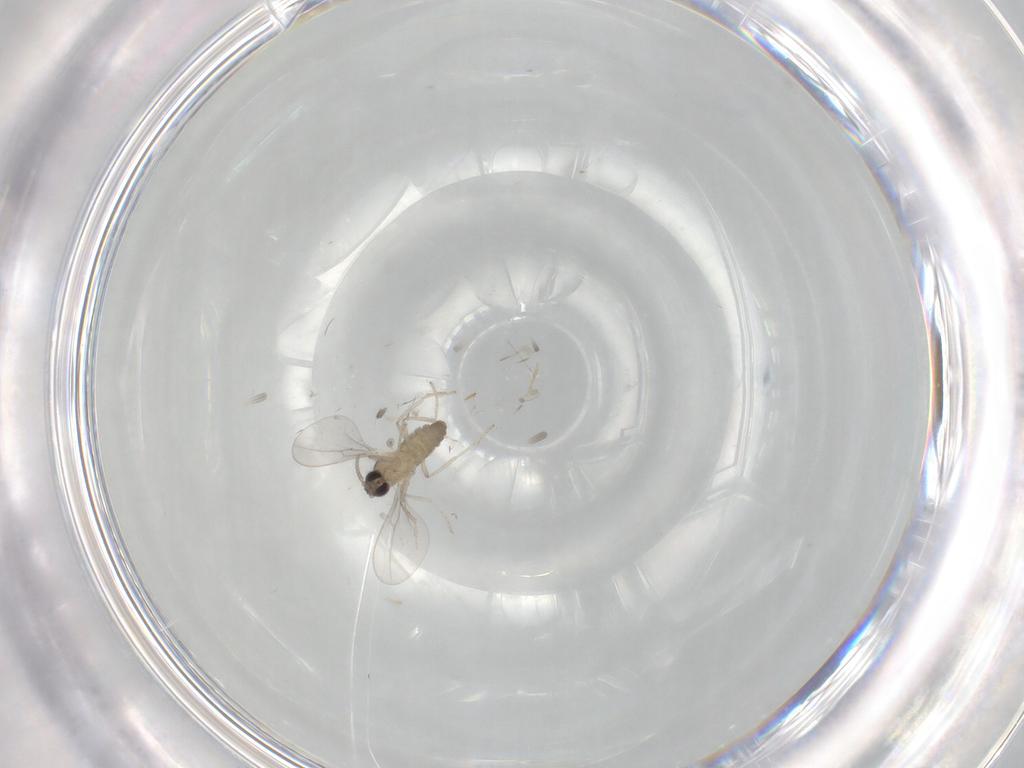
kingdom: Animalia
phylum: Arthropoda
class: Insecta
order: Diptera
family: Cecidomyiidae
